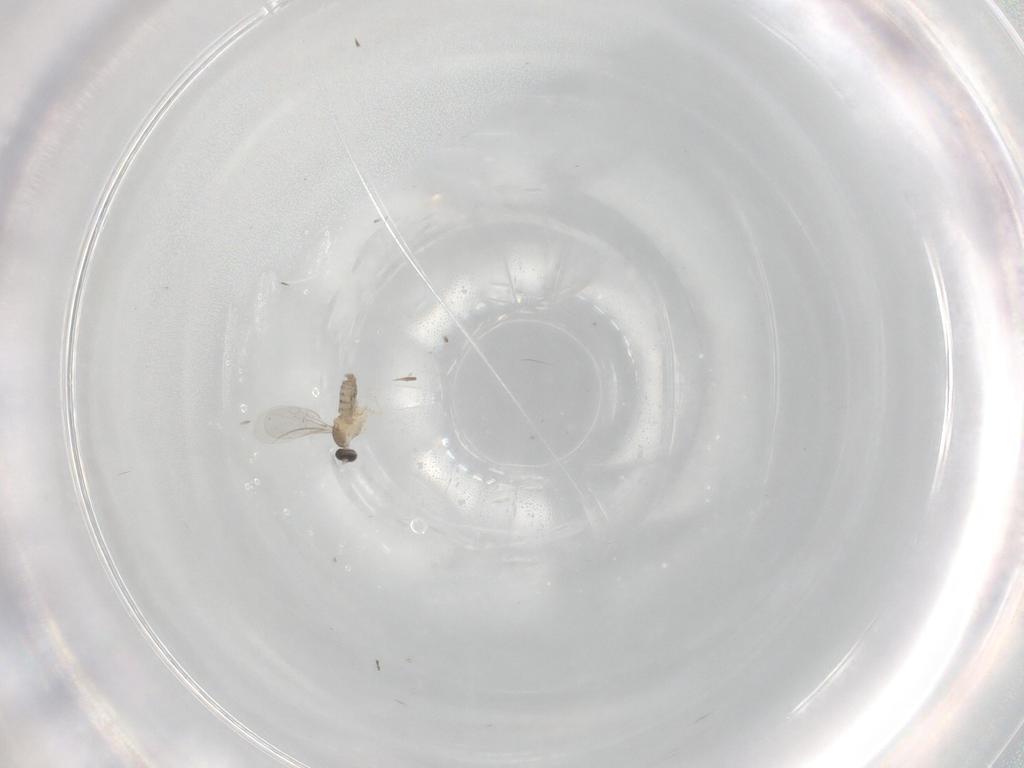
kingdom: Animalia
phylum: Arthropoda
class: Insecta
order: Diptera
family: Cecidomyiidae
